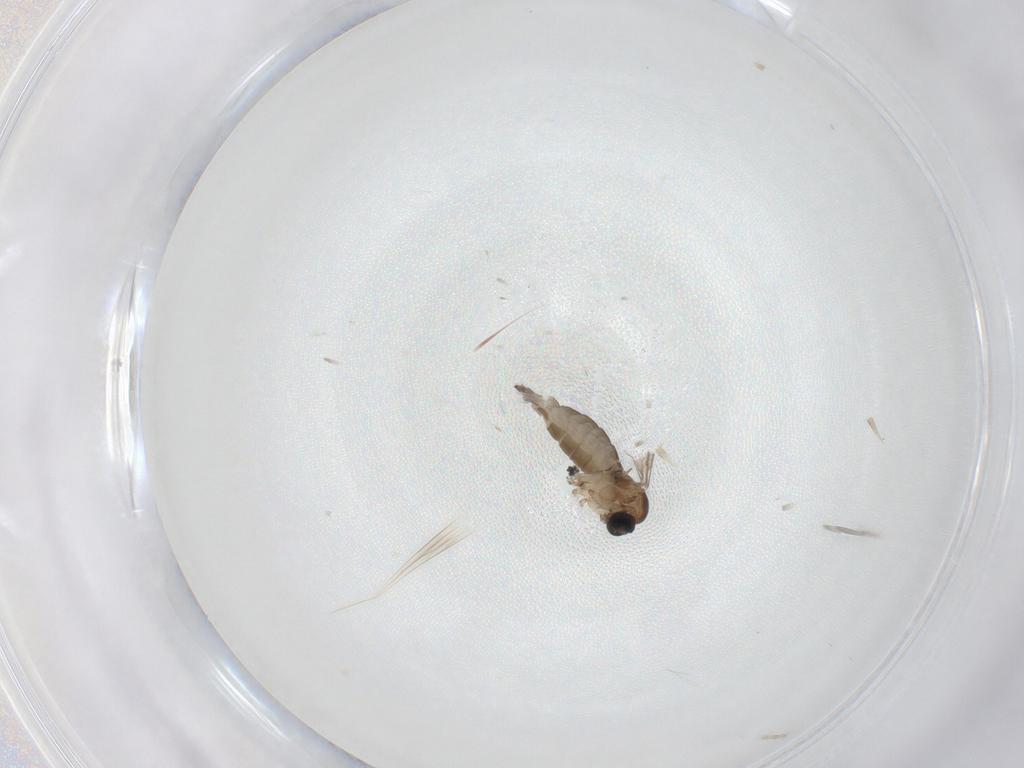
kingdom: Animalia
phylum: Arthropoda
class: Insecta
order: Diptera
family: Sciaridae
